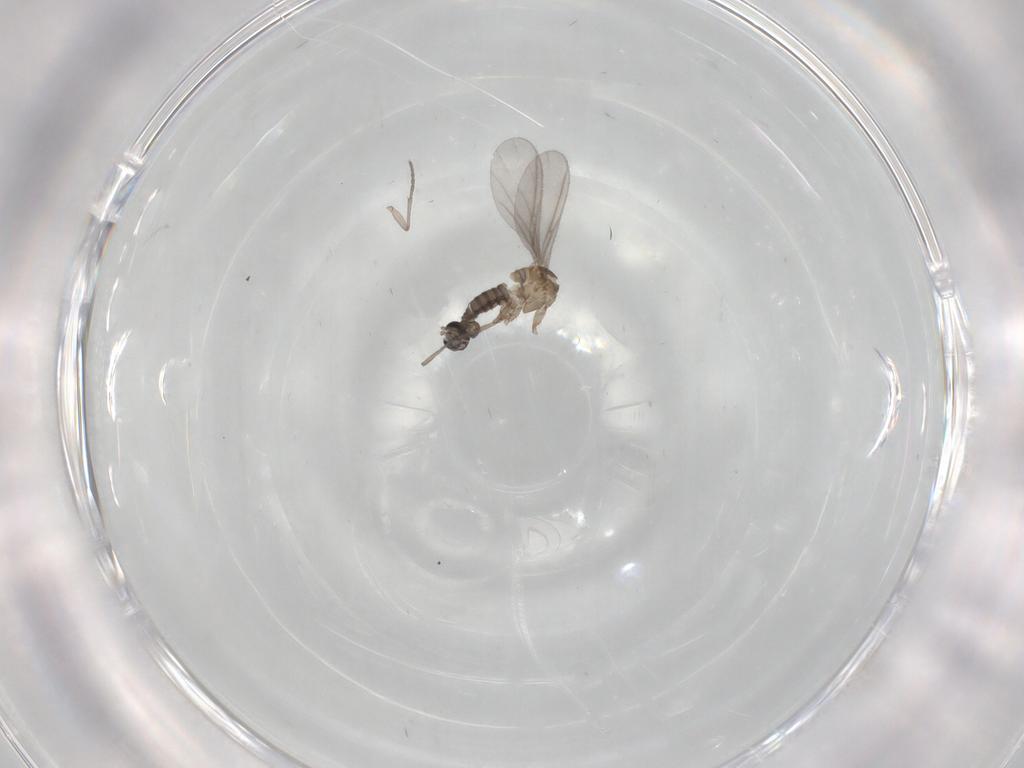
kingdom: Animalia
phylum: Arthropoda
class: Insecta
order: Diptera
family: Sciaridae
